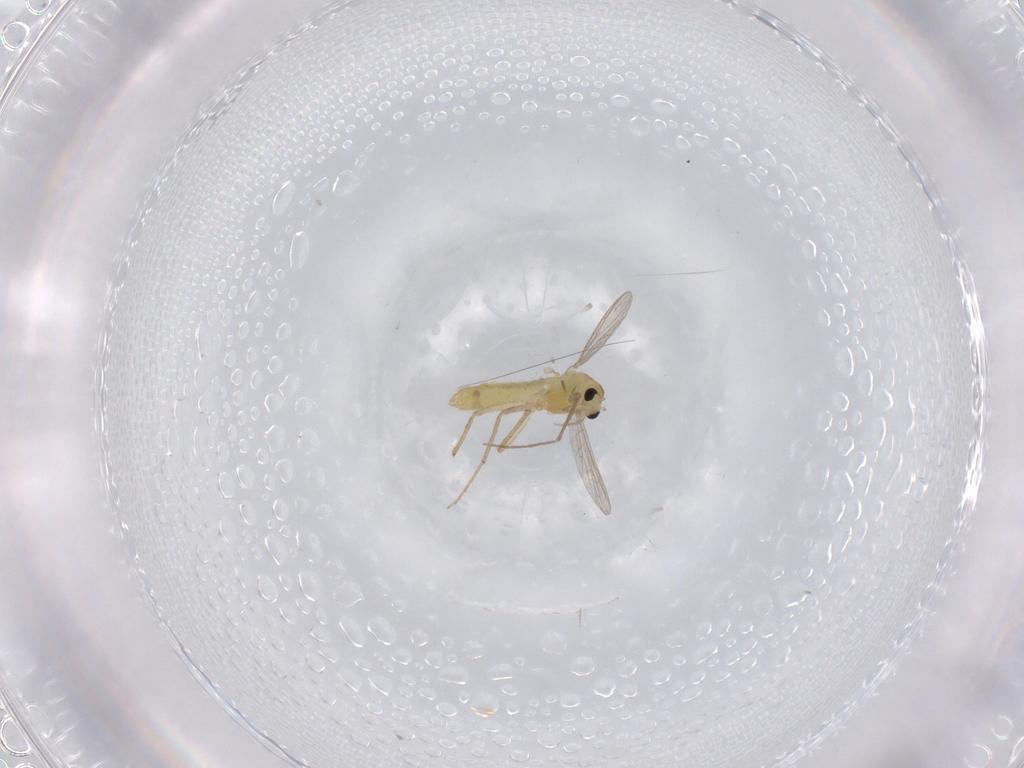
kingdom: Animalia
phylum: Arthropoda
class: Insecta
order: Diptera
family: Chironomidae
